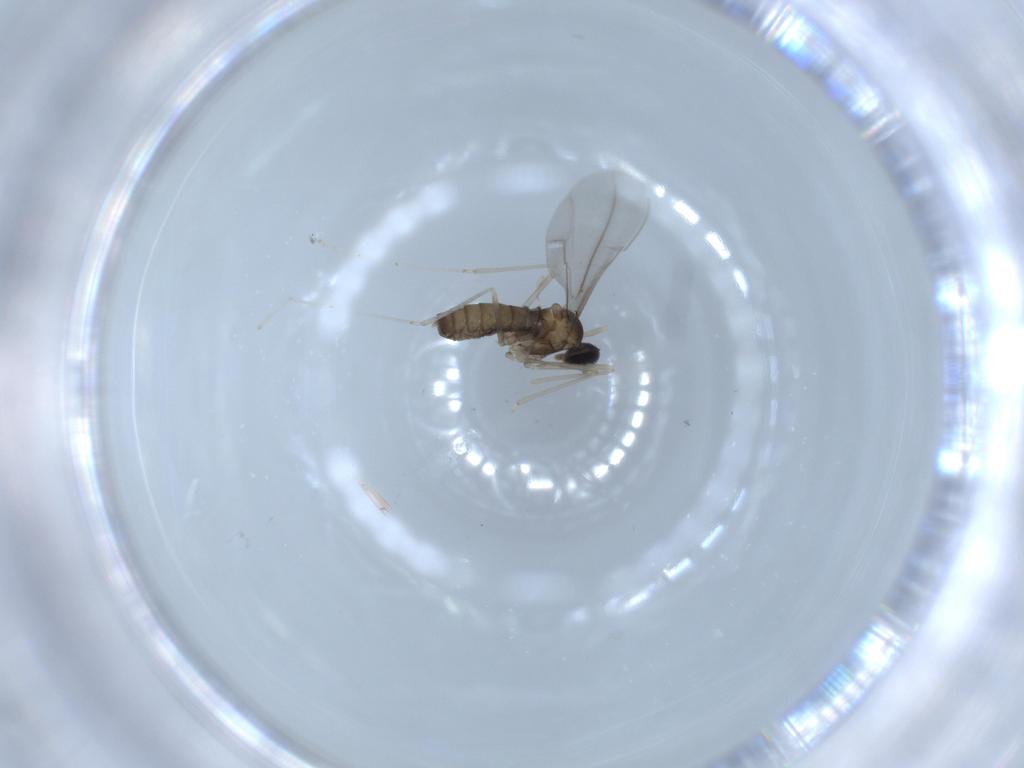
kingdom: Animalia
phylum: Arthropoda
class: Insecta
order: Diptera
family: Cecidomyiidae
